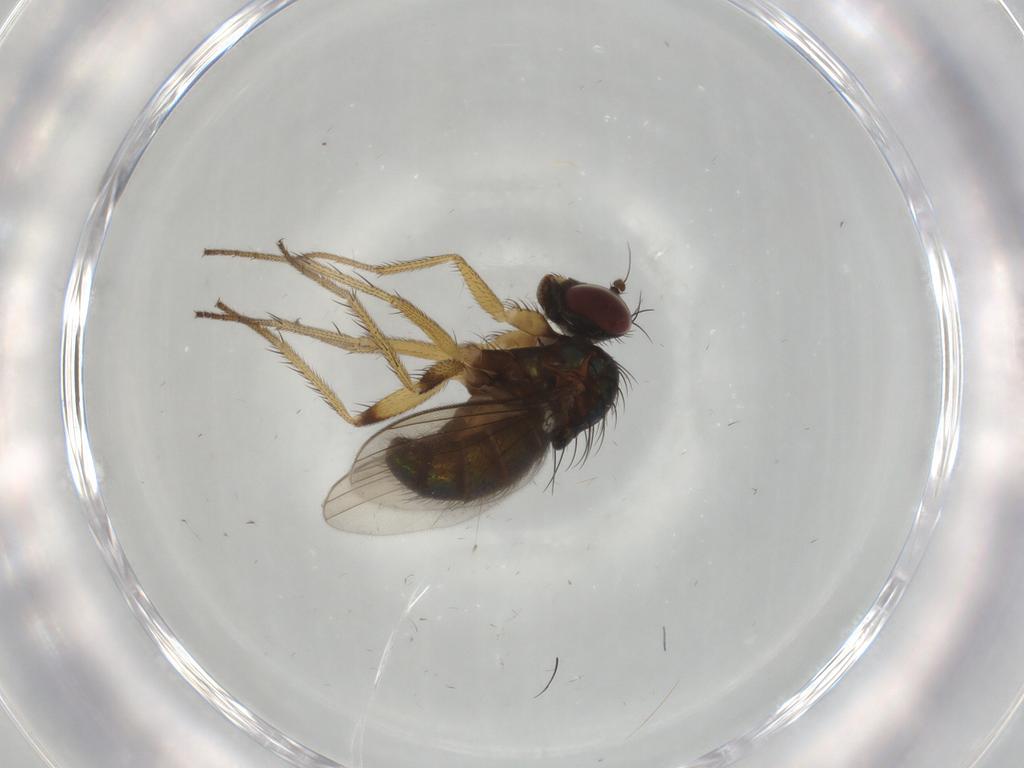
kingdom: Animalia
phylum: Arthropoda
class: Insecta
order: Diptera
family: Dolichopodidae
